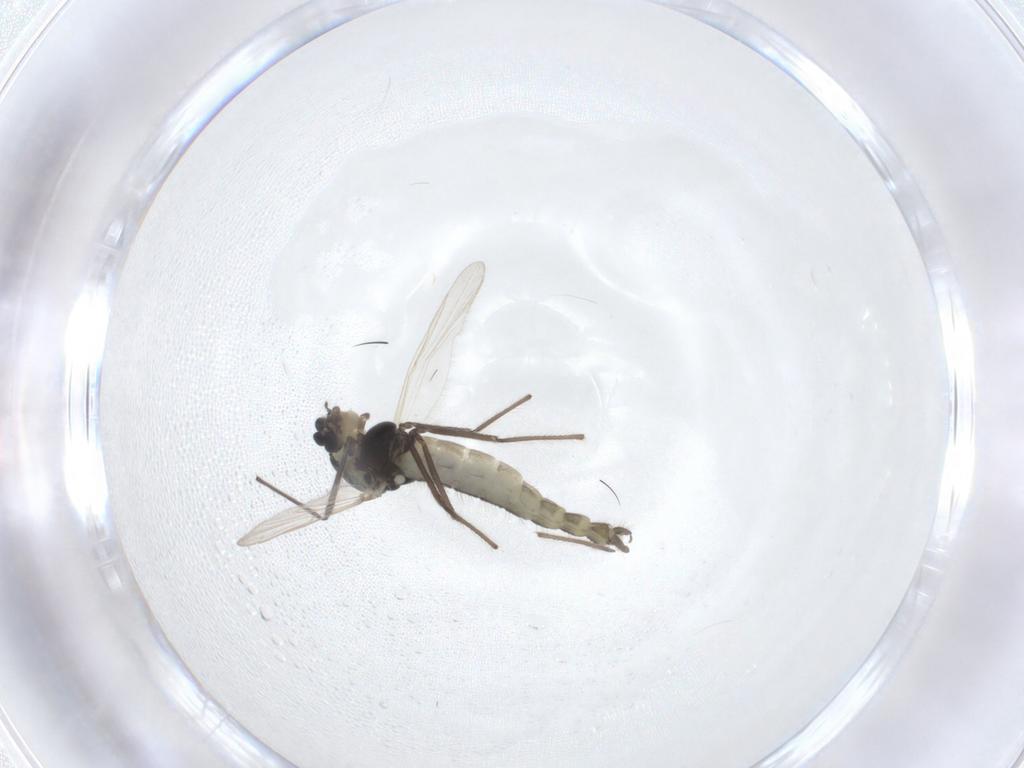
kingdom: Animalia
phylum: Arthropoda
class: Insecta
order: Diptera
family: Chironomidae
